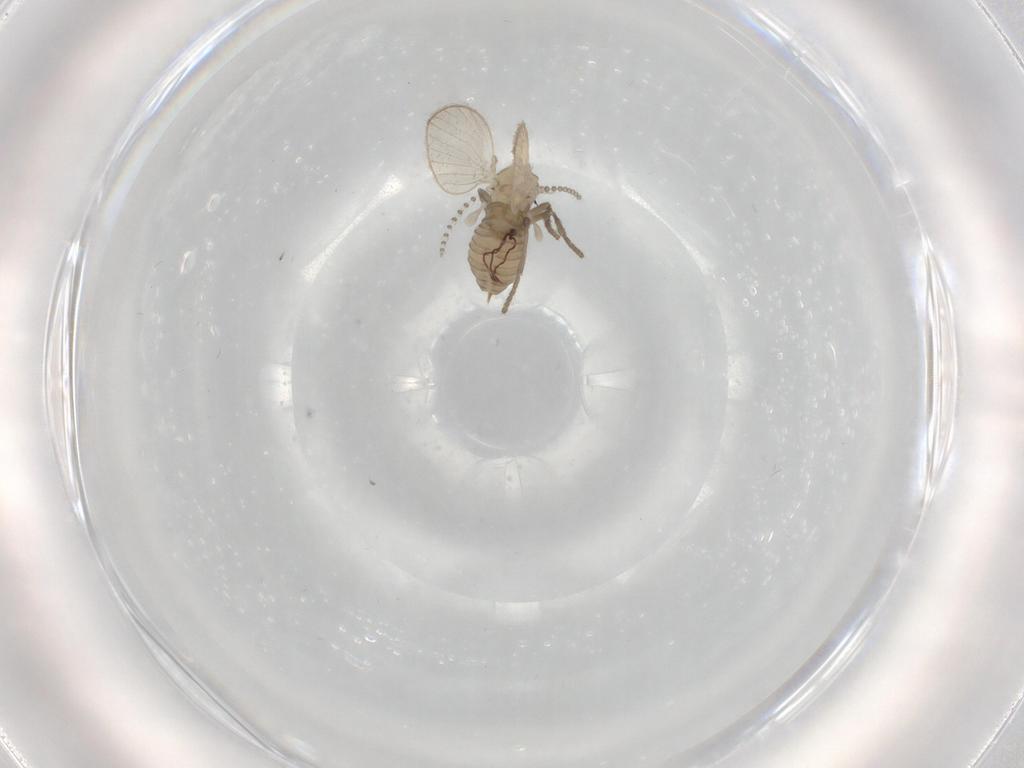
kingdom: Animalia
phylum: Arthropoda
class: Insecta
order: Diptera
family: Psychodidae
